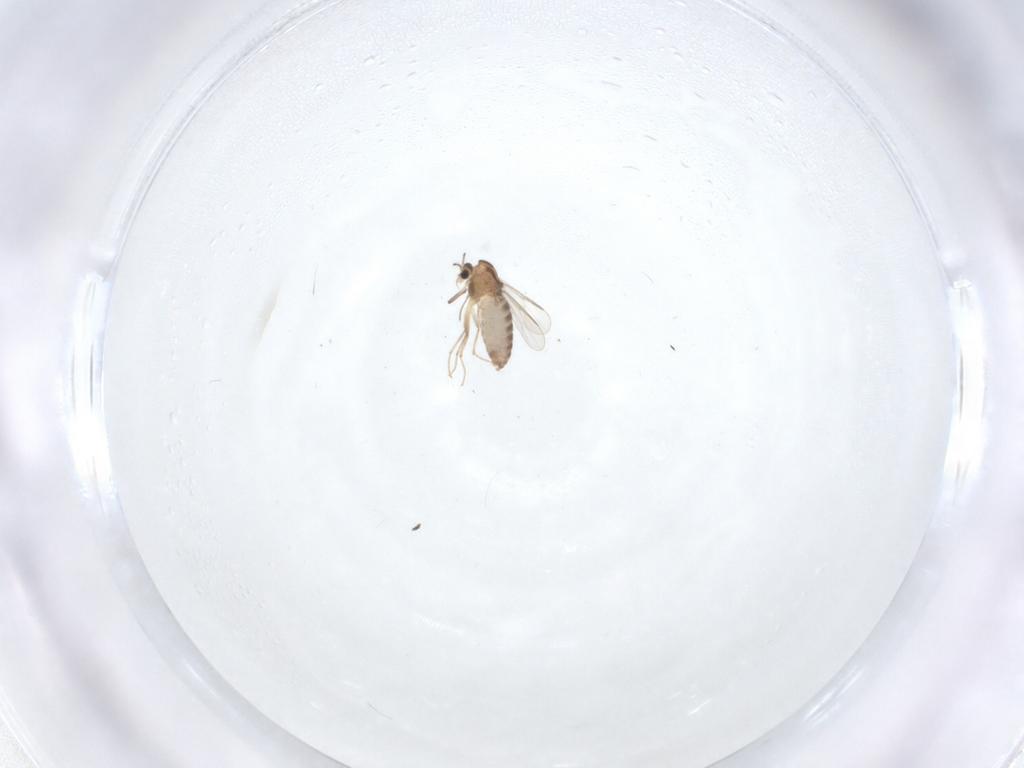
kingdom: Animalia
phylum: Arthropoda
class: Insecta
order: Diptera
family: Chironomidae
